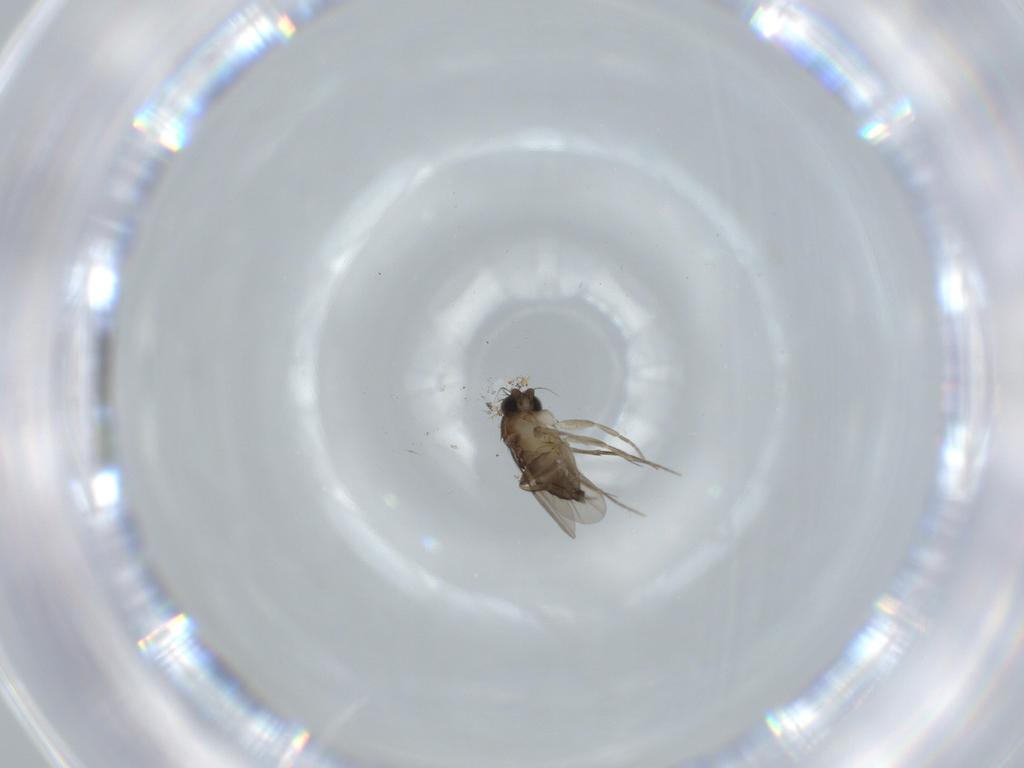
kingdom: Animalia
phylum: Arthropoda
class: Insecta
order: Diptera
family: Phoridae
